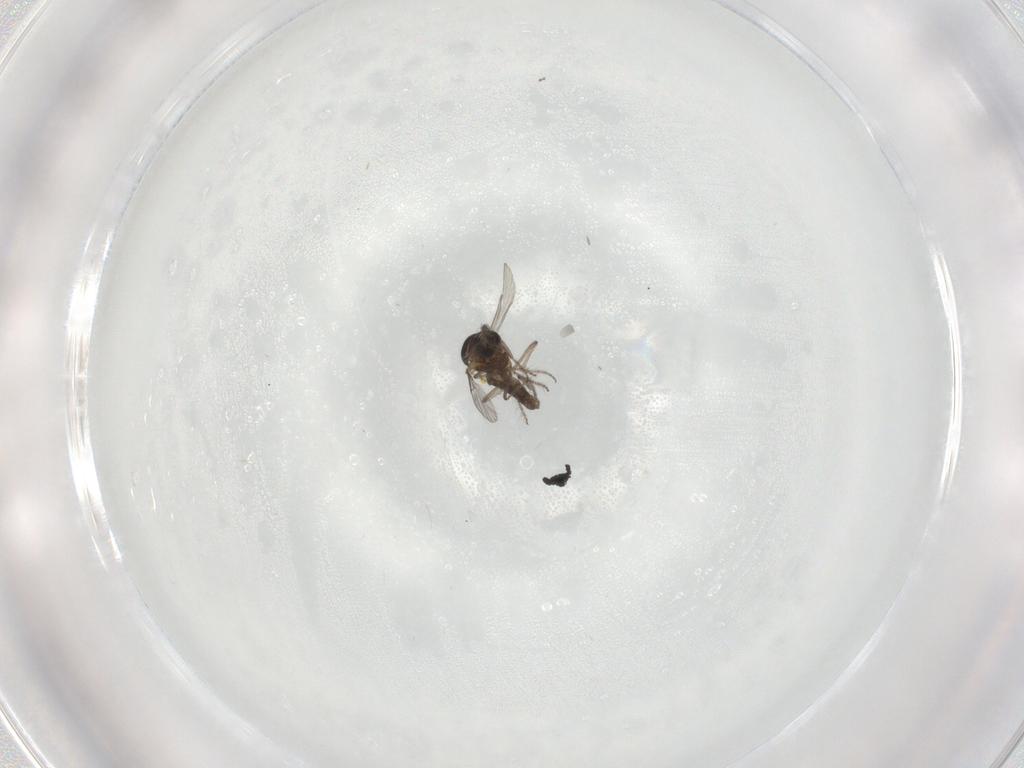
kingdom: Animalia
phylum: Arthropoda
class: Insecta
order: Diptera
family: Ceratopogonidae
